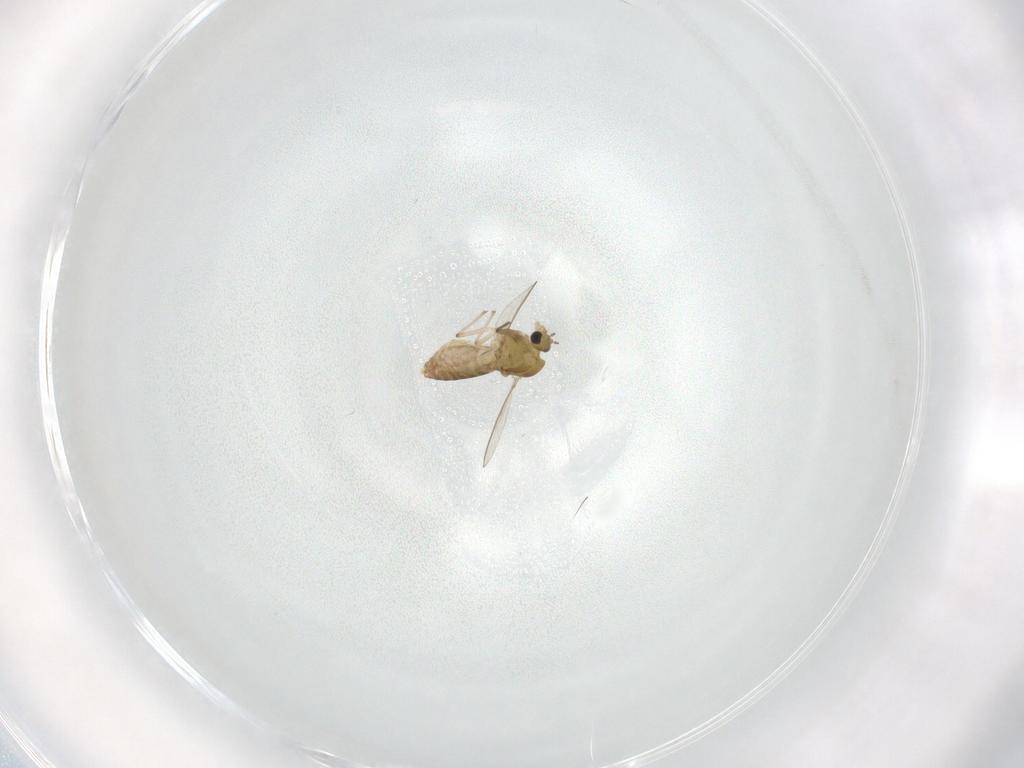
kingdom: Animalia
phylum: Arthropoda
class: Insecta
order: Diptera
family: Chironomidae
